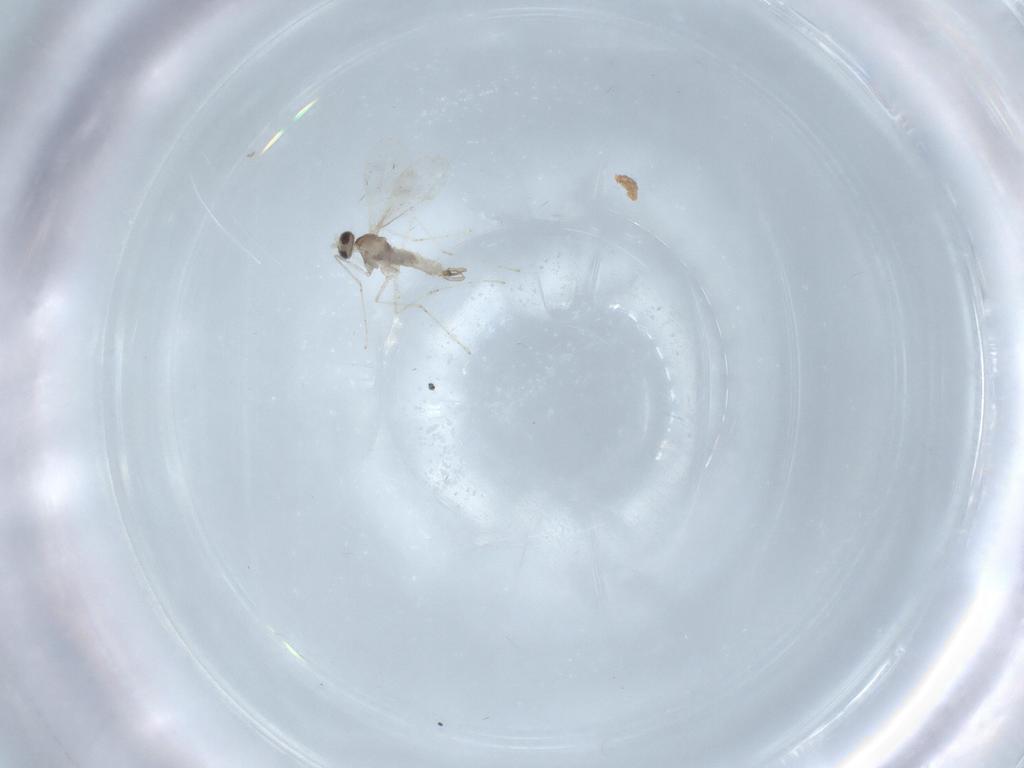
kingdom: Animalia
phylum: Arthropoda
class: Insecta
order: Diptera
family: Cecidomyiidae
